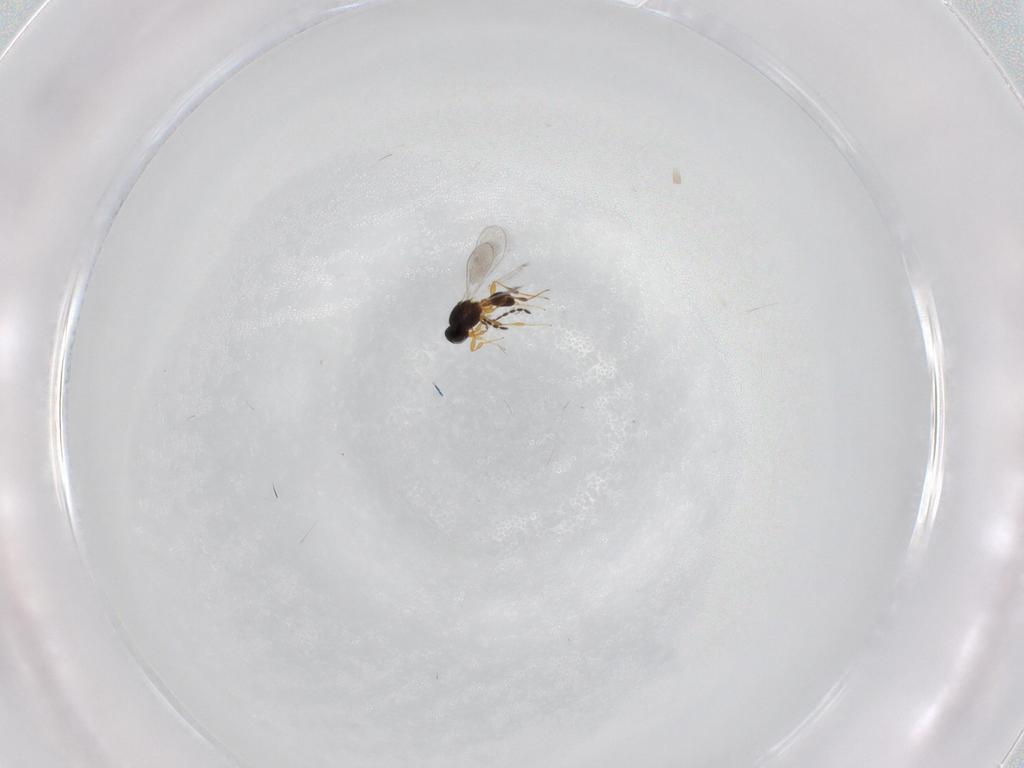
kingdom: Animalia
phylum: Arthropoda
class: Insecta
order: Hymenoptera
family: Platygastridae
